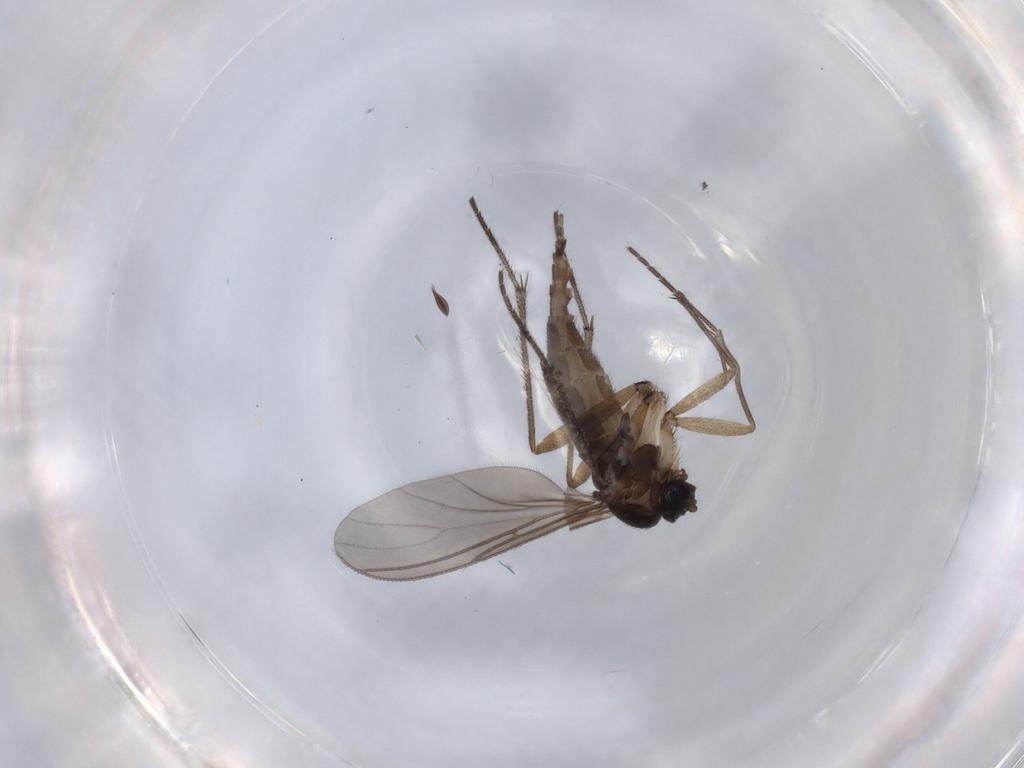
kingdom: Animalia
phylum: Arthropoda
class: Insecta
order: Diptera
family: Sciaridae
